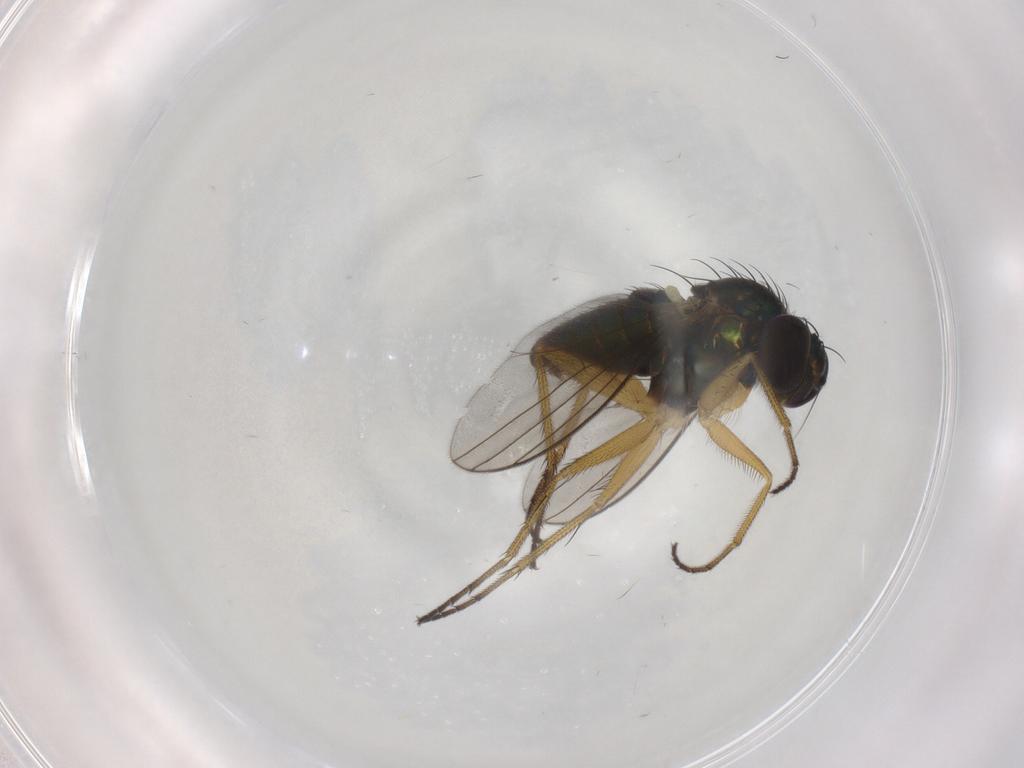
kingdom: Animalia
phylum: Arthropoda
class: Insecta
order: Diptera
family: Dolichopodidae
